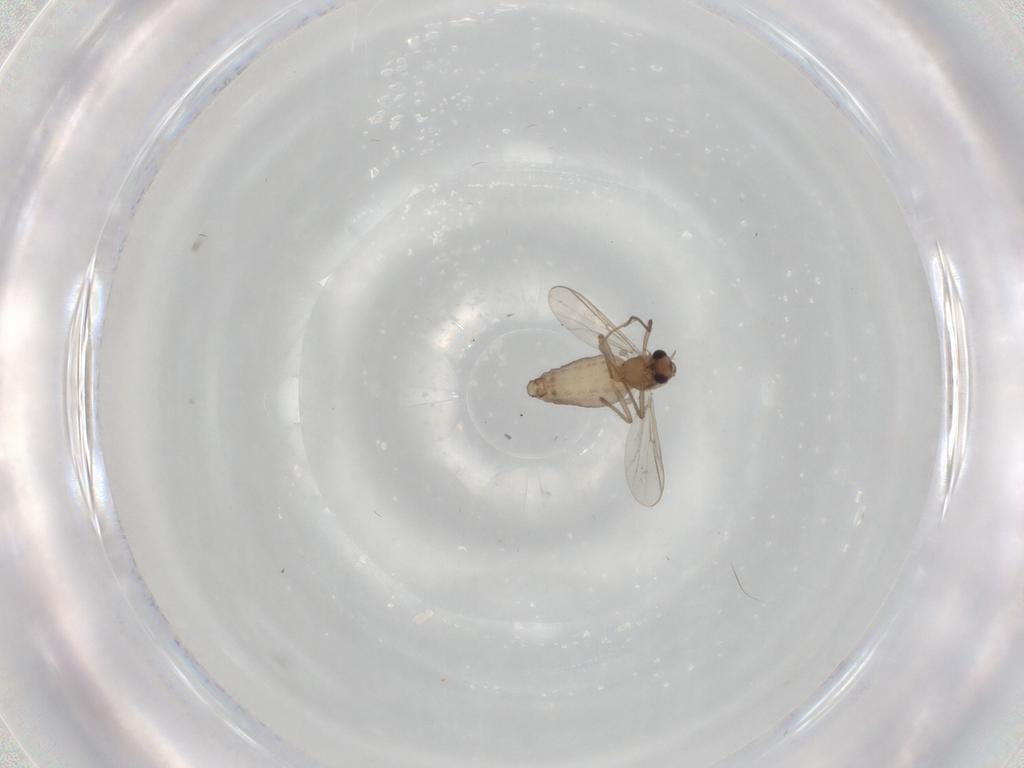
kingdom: Animalia
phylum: Arthropoda
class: Insecta
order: Diptera
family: Chironomidae
